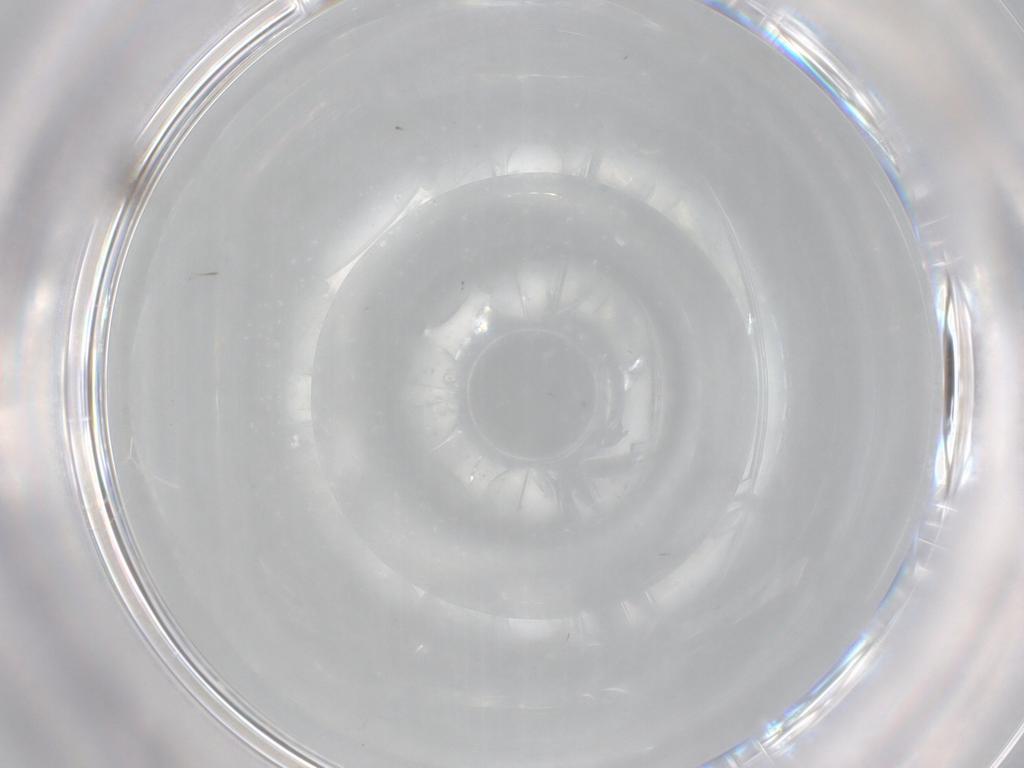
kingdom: Animalia
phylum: Arthropoda
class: Insecta
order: Diptera
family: Cecidomyiidae
